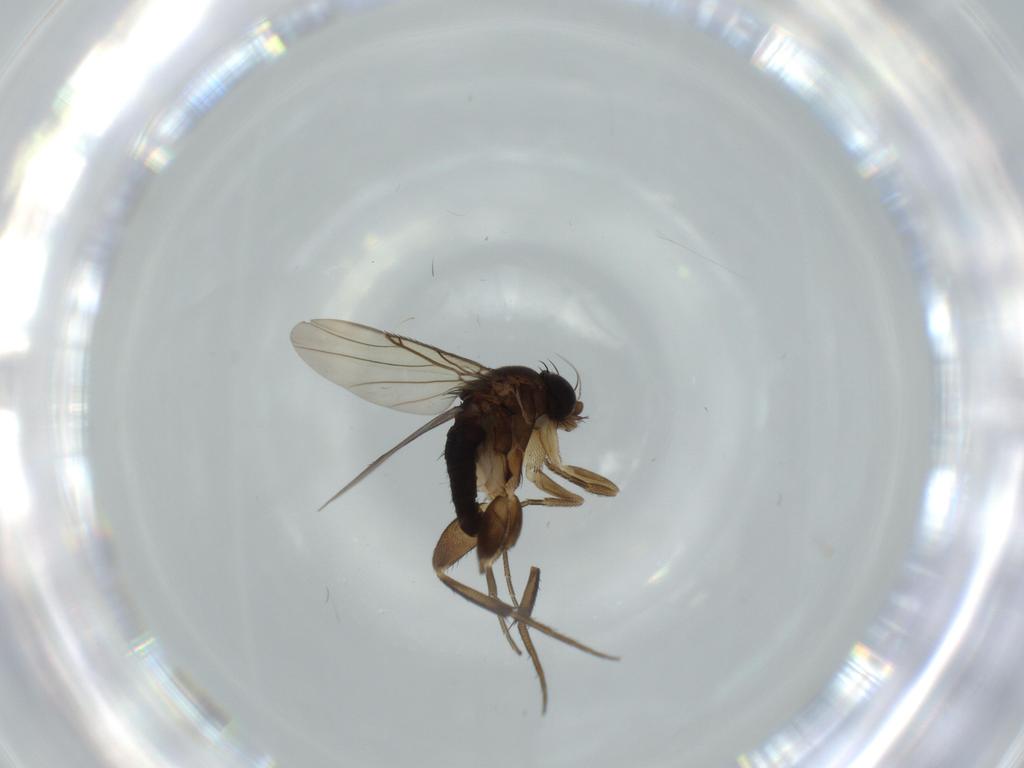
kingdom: Animalia
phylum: Arthropoda
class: Insecta
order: Diptera
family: Phoridae
